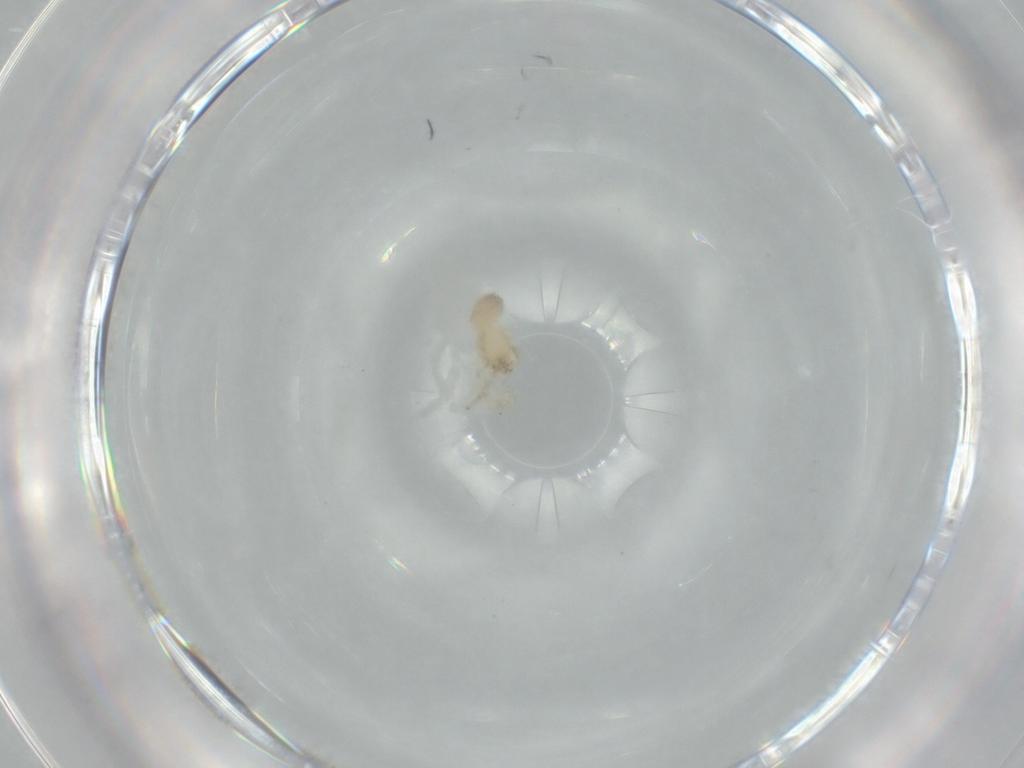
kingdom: Animalia
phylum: Arthropoda
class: Arachnida
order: Araneae
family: Oonopidae
